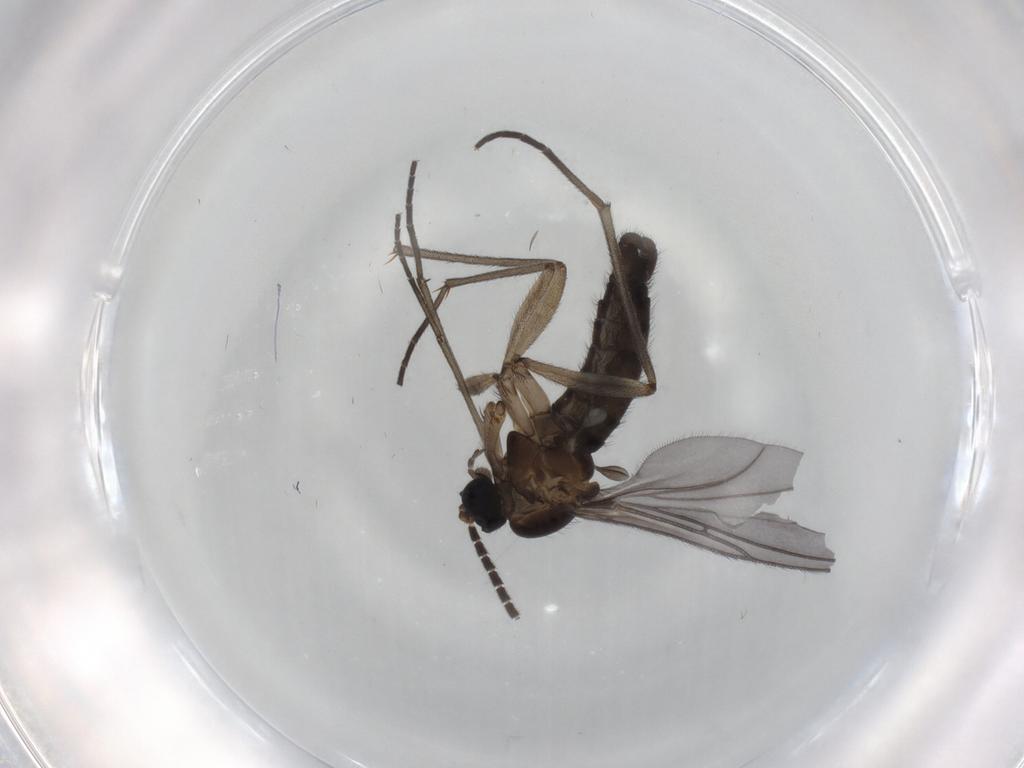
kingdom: Animalia
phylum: Arthropoda
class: Insecta
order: Diptera
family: Sciaridae
